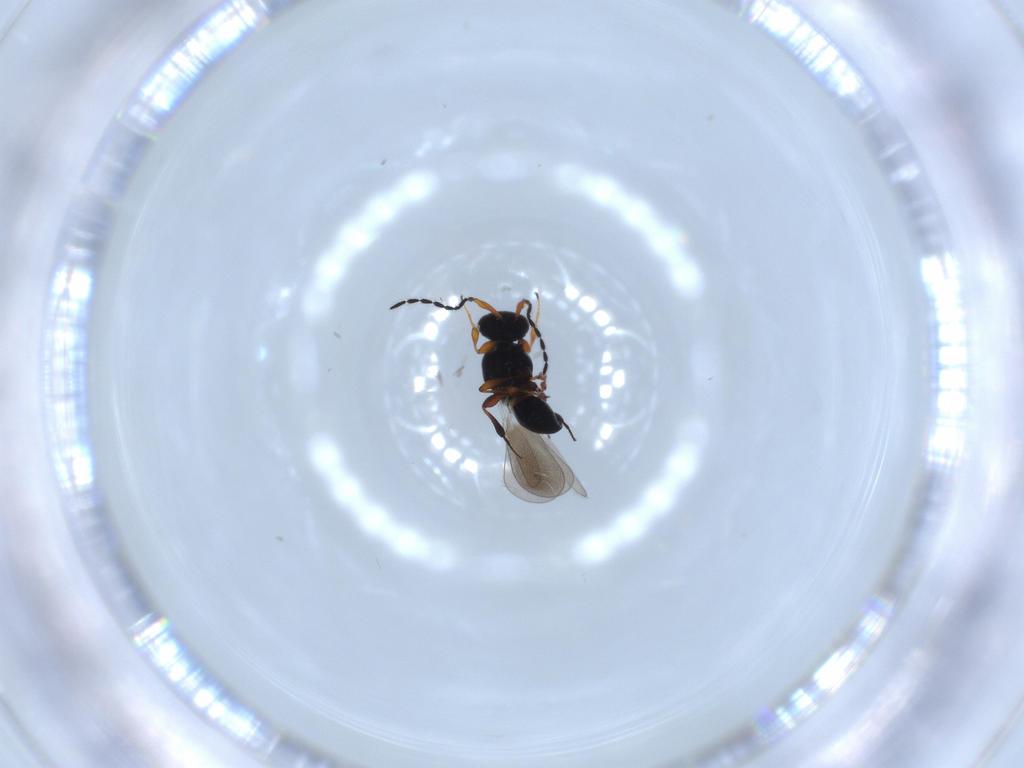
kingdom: Animalia
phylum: Arthropoda
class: Insecta
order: Hymenoptera
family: Platygastridae
